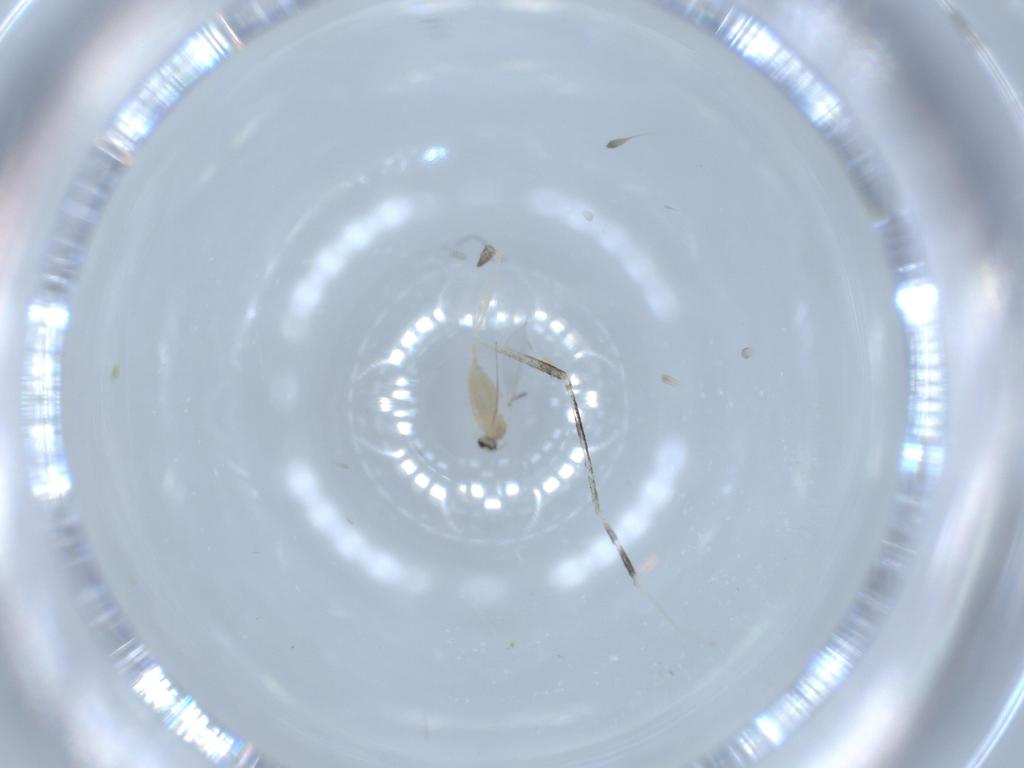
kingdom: Animalia
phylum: Arthropoda
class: Insecta
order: Diptera
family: Cecidomyiidae
